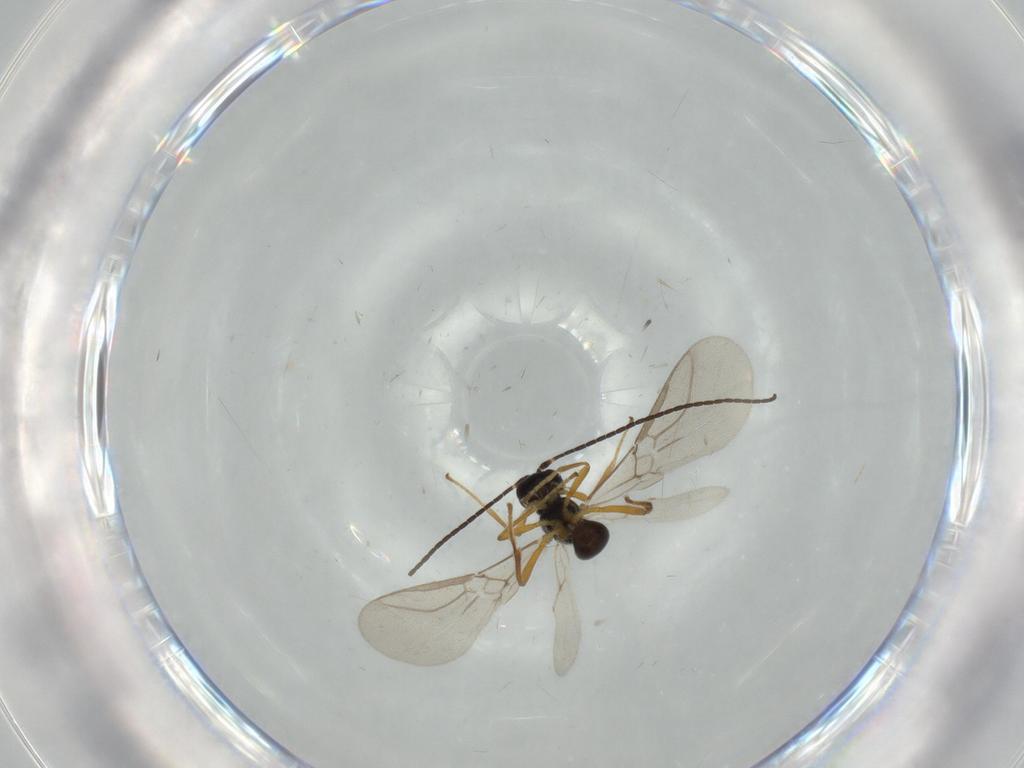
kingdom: Animalia
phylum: Arthropoda
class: Insecta
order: Hymenoptera
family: Braconidae
